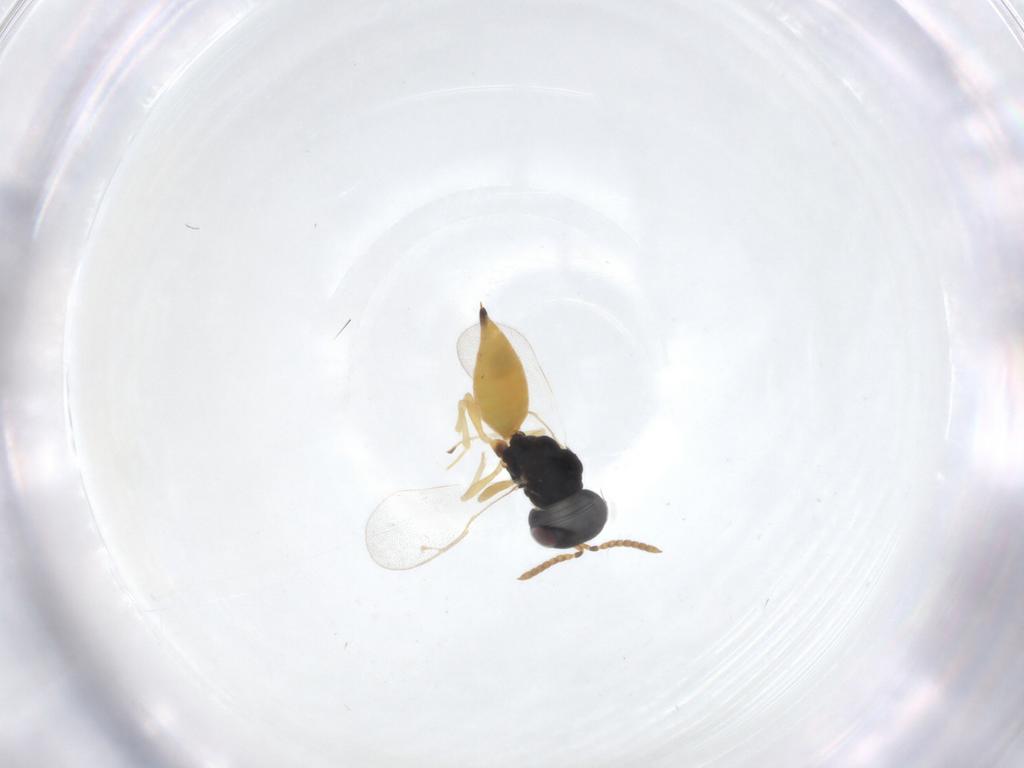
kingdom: Animalia
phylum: Arthropoda
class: Insecta
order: Hymenoptera
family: Pteromalidae
